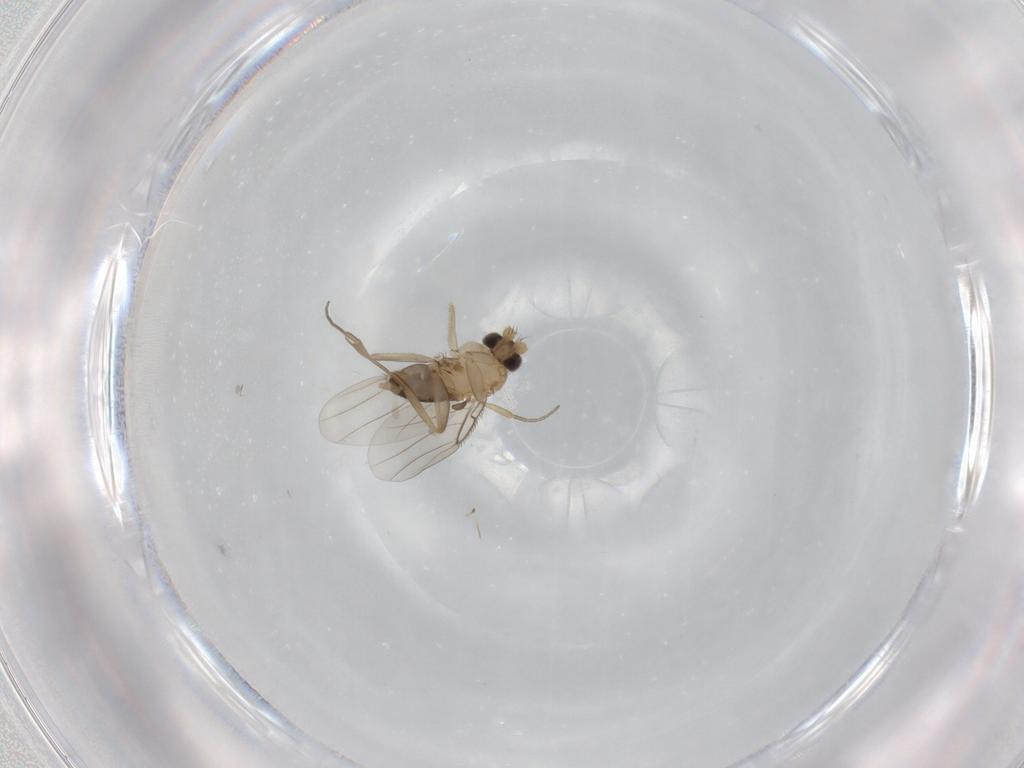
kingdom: Animalia
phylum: Arthropoda
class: Insecta
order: Diptera
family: Phoridae
